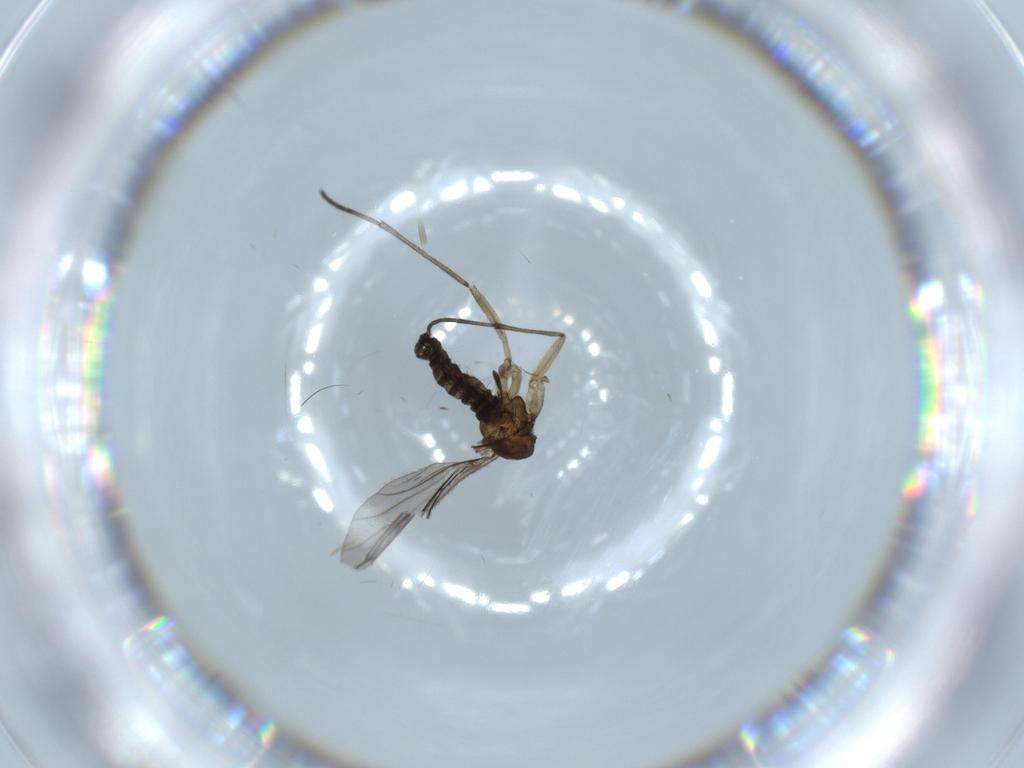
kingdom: Animalia
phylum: Arthropoda
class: Insecta
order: Diptera
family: Sciaridae
